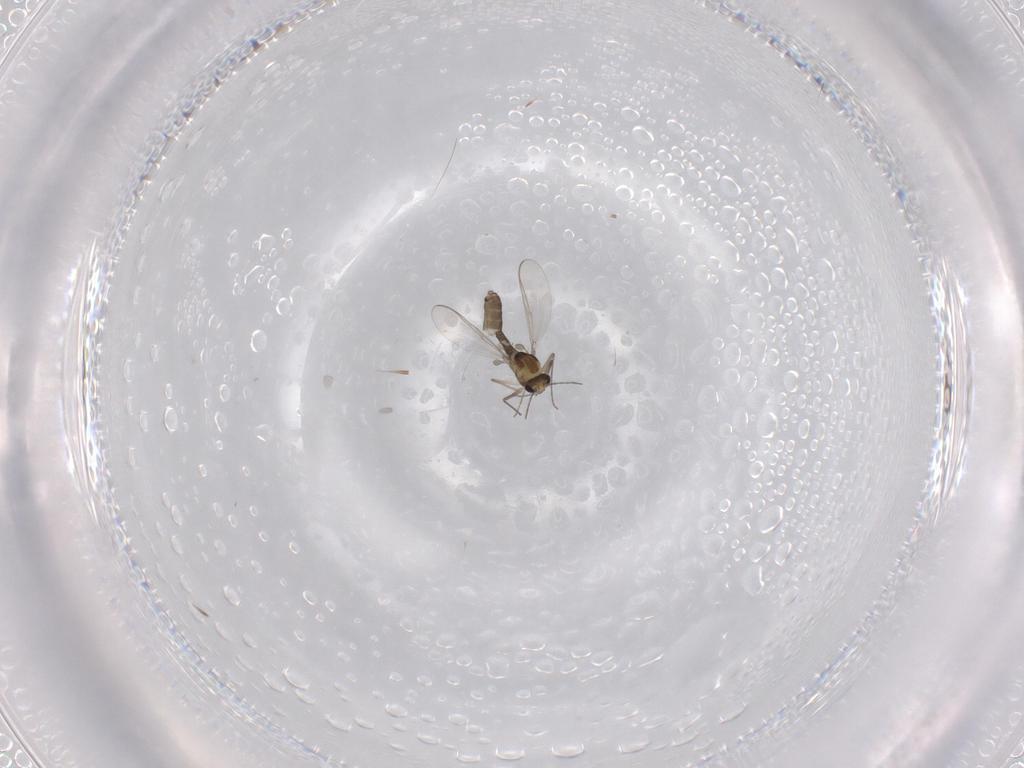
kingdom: Animalia
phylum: Arthropoda
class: Insecta
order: Diptera
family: Chironomidae
